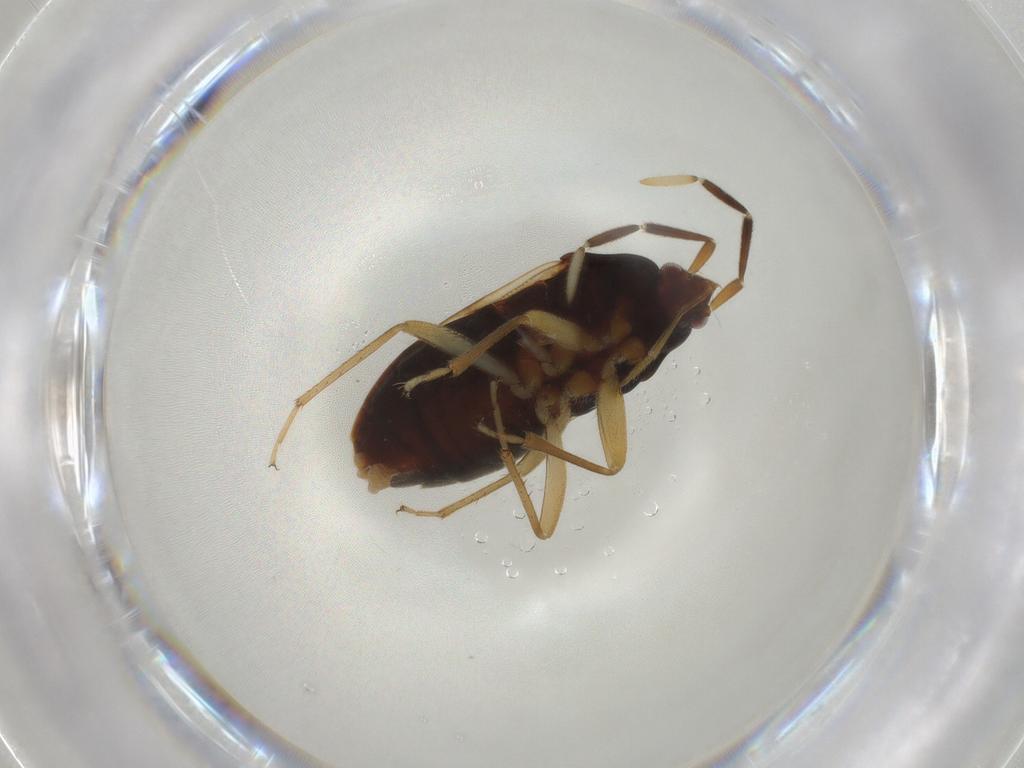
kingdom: Animalia
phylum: Arthropoda
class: Insecta
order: Hemiptera
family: Rhyparochromidae
